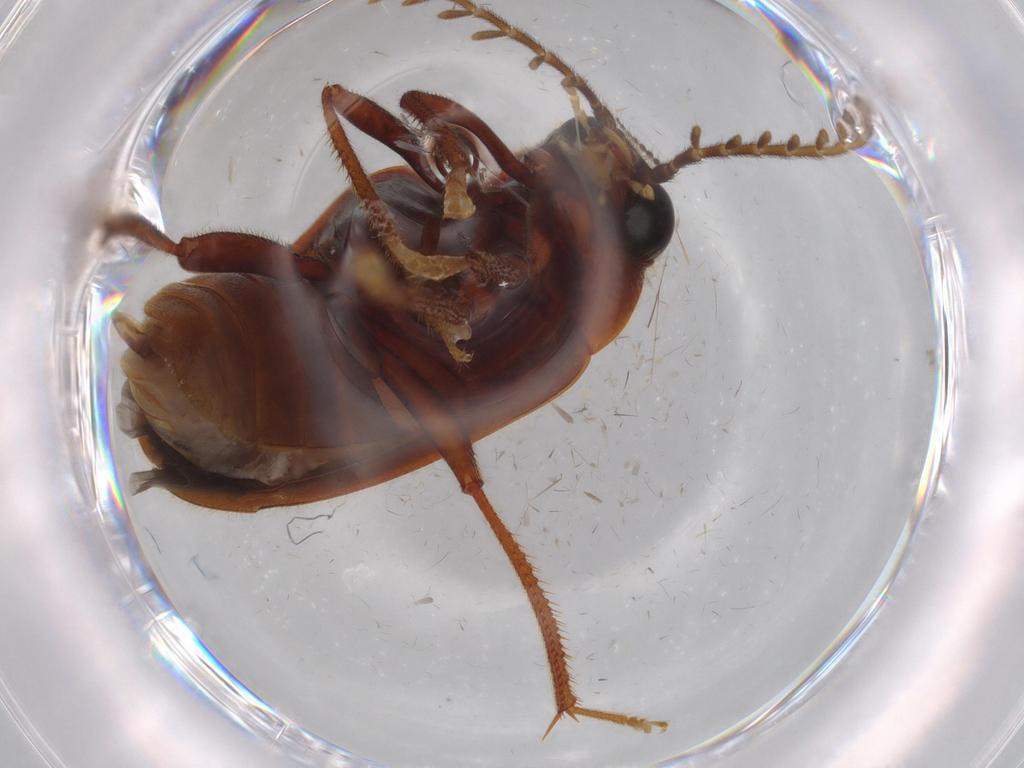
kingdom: Animalia
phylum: Arthropoda
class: Insecta
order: Coleoptera
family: Ptilodactylidae
